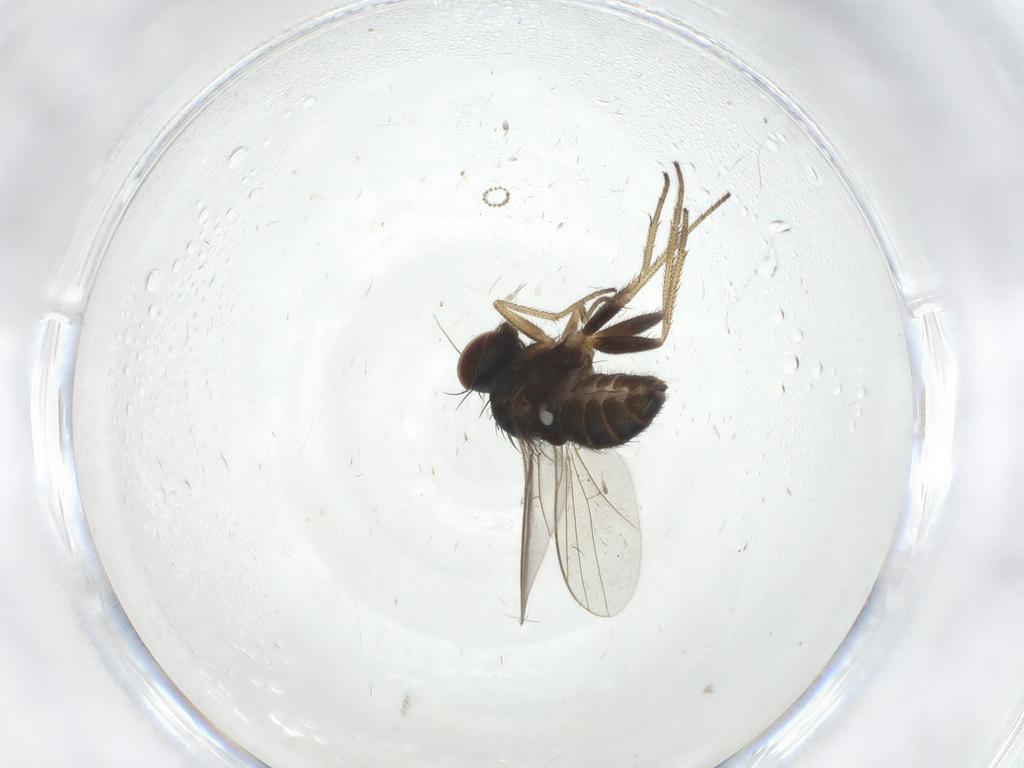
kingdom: Animalia
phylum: Arthropoda
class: Insecta
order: Diptera
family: Dolichopodidae
